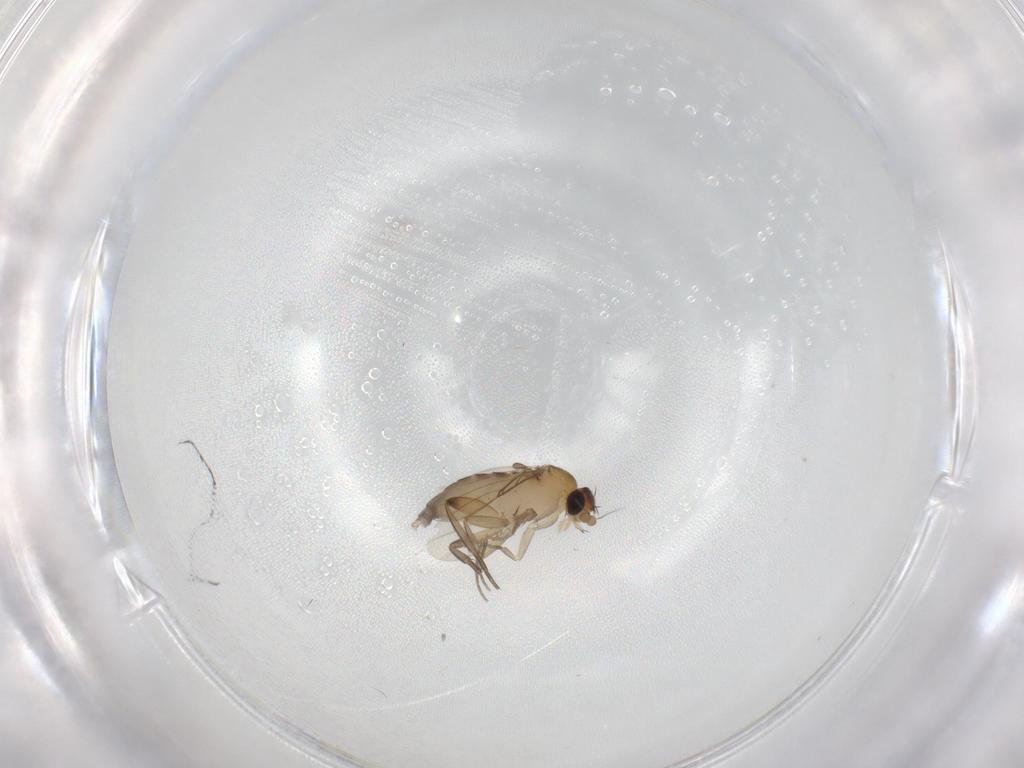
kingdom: Animalia
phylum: Arthropoda
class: Insecta
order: Diptera
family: Phoridae
